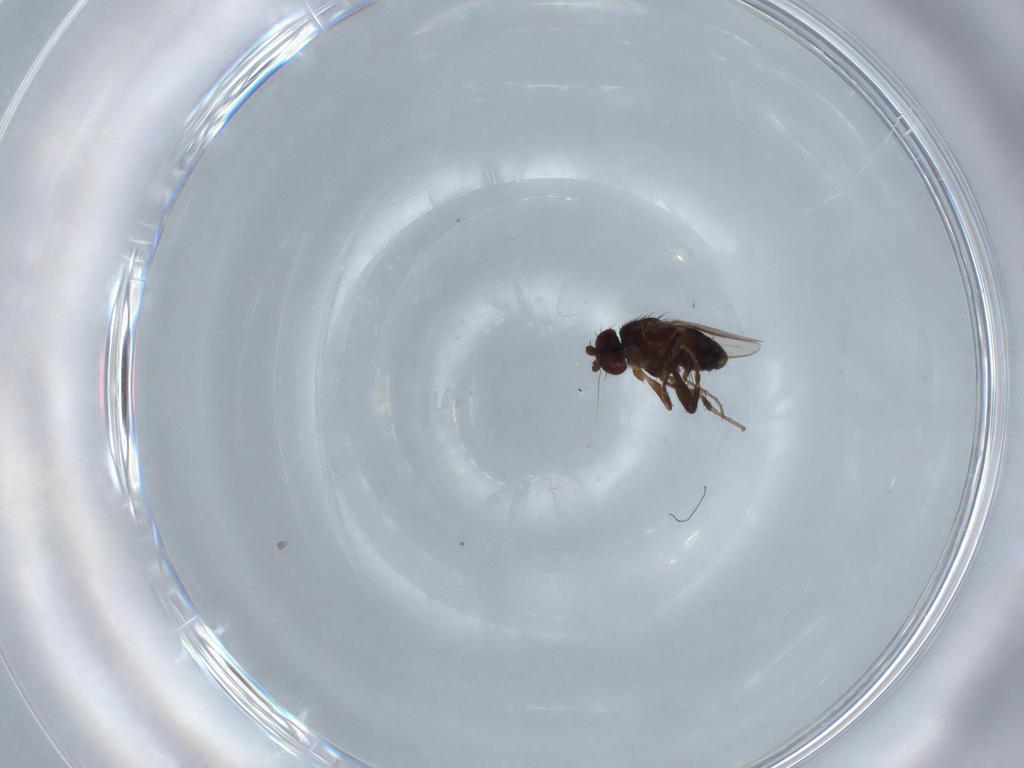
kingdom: Animalia
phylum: Arthropoda
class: Insecta
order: Diptera
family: Sphaeroceridae
